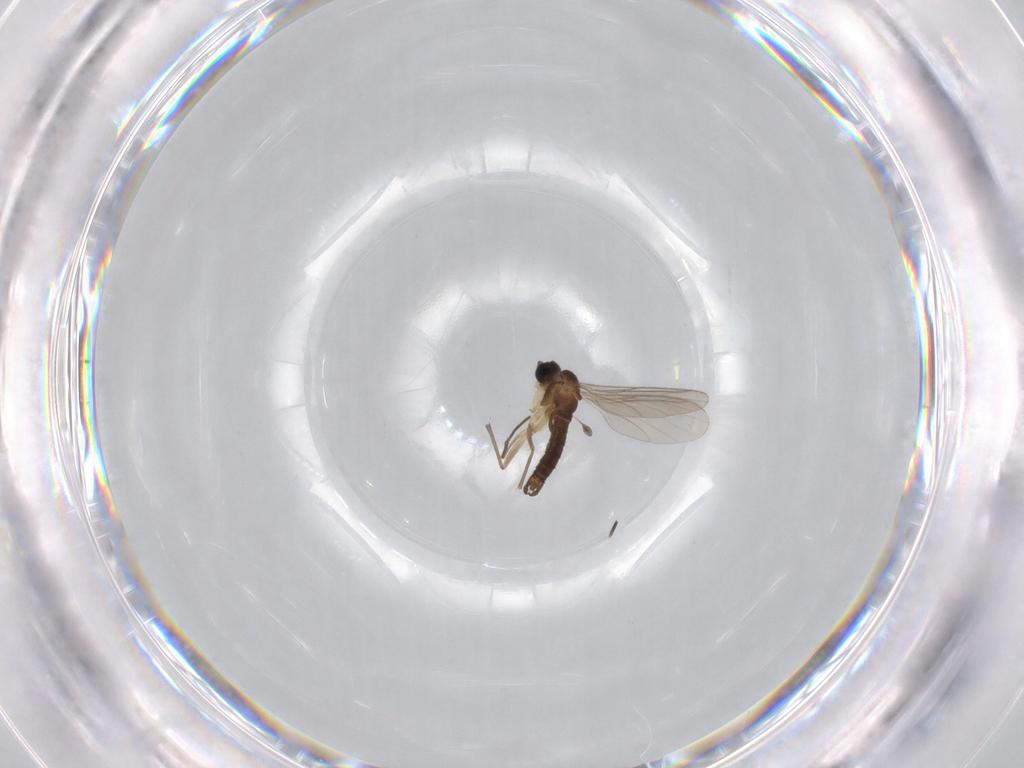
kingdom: Animalia
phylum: Arthropoda
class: Insecta
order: Diptera
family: Sciaridae
